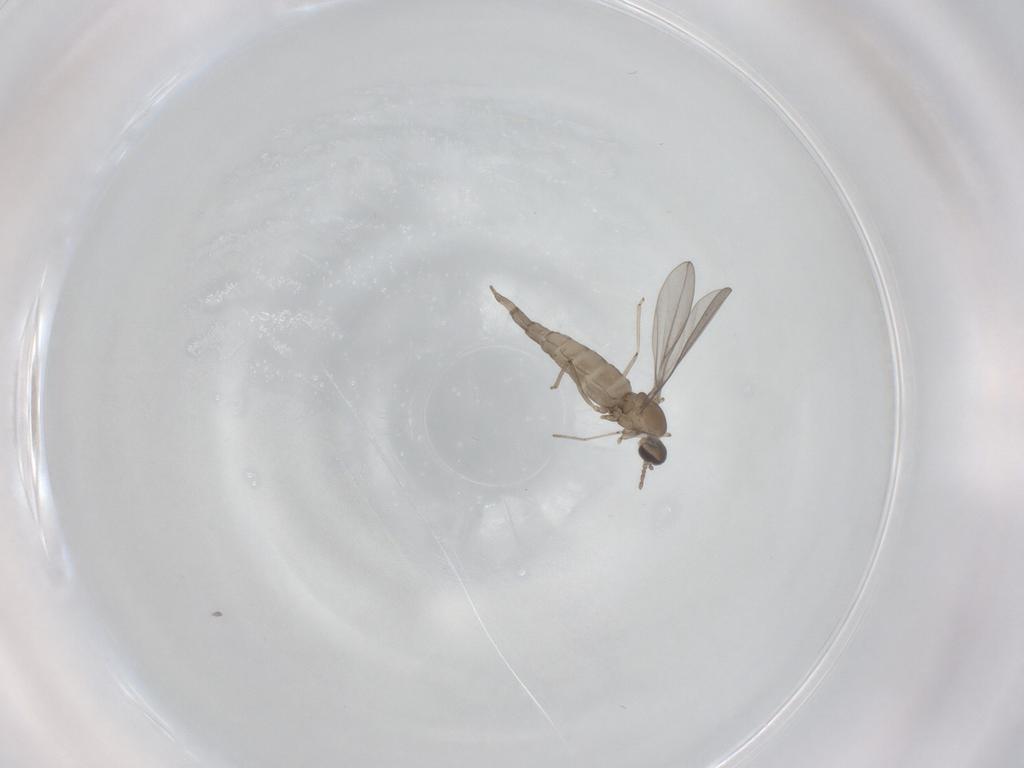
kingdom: Animalia
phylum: Arthropoda
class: Insecta
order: Diptera
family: Cecidomyiidae
